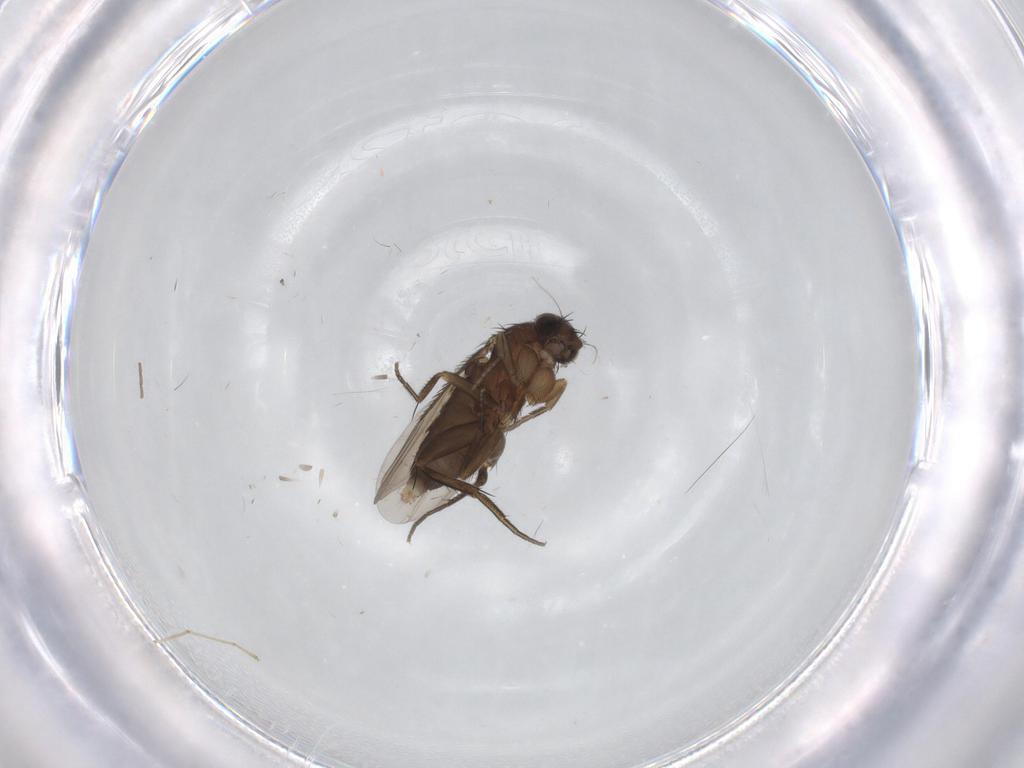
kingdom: Animalia
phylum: Arthropoda
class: Insecta
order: Diptera
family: Phoridae
